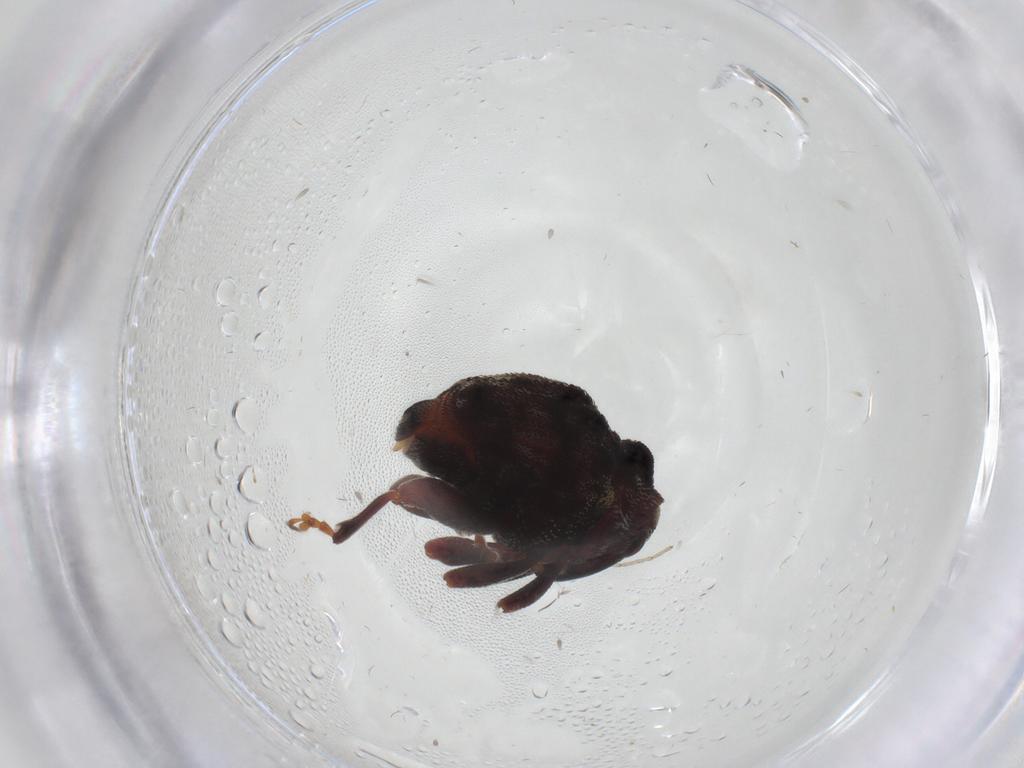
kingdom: Animalia
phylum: Arthropoda
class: Insecta
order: Coleoptera
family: Curculionidae
